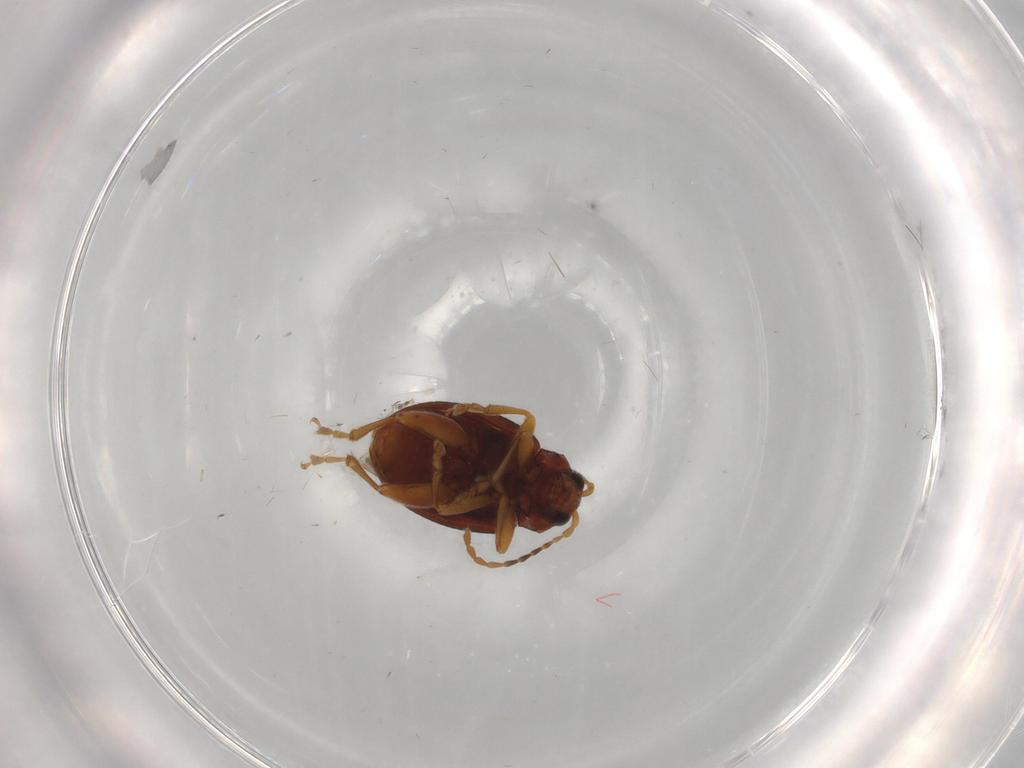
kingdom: Animalia
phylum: Arthropoda
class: Insecta
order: Coleoptera
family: Chrysomelidae
